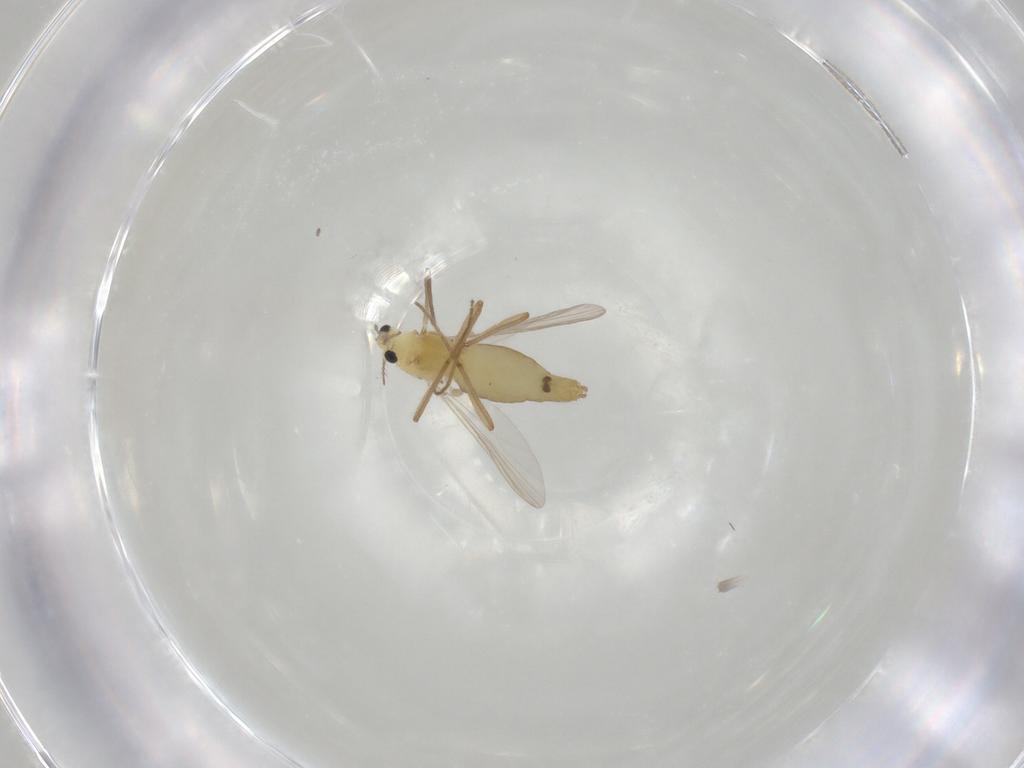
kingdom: Animalia
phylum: Arthropoda
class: Insecta
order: Diptera
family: Chironomidae
